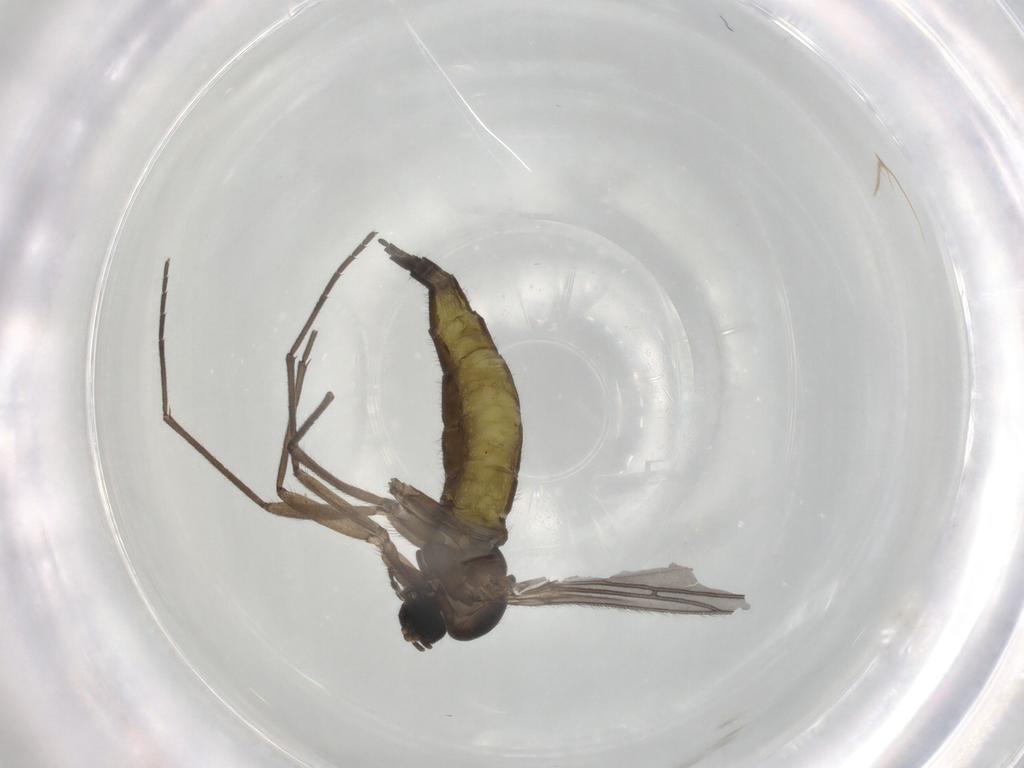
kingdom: Animalia
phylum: Arthropoda
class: Insecta
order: Diptera
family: Sciaridae
